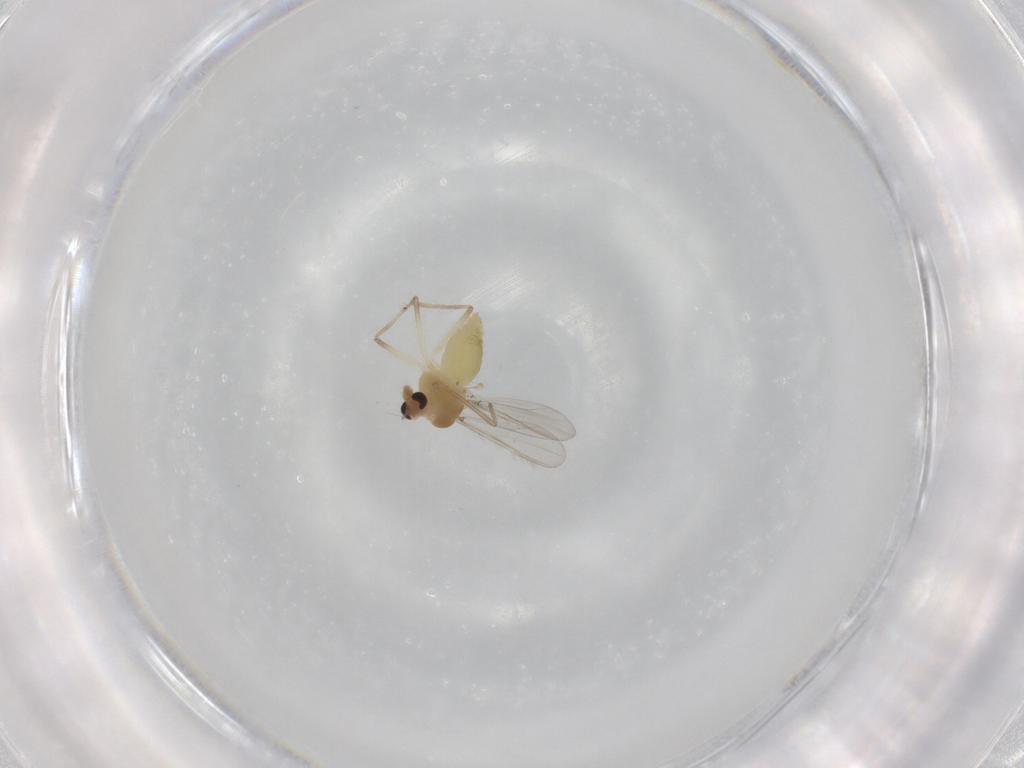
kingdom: Animalia
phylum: Arthropoda
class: Insecta
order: Diptera
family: Chironomidae
